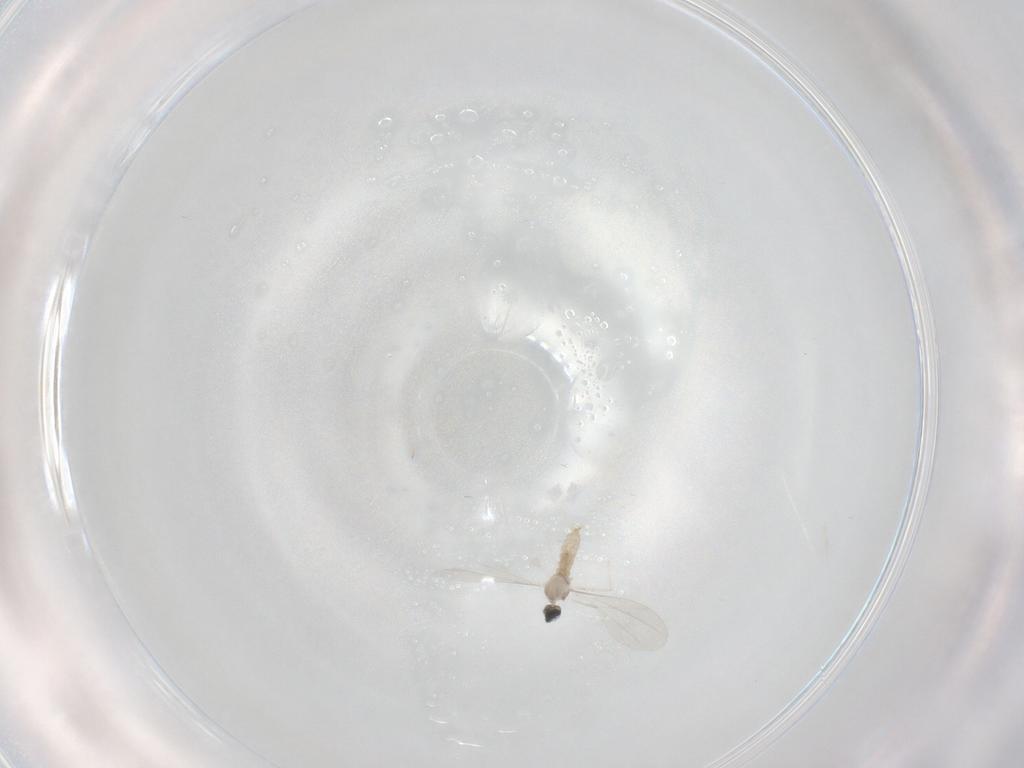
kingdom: Animalia
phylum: Arthropoda
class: Insecta
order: Diptera
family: Cecidomyiidae
